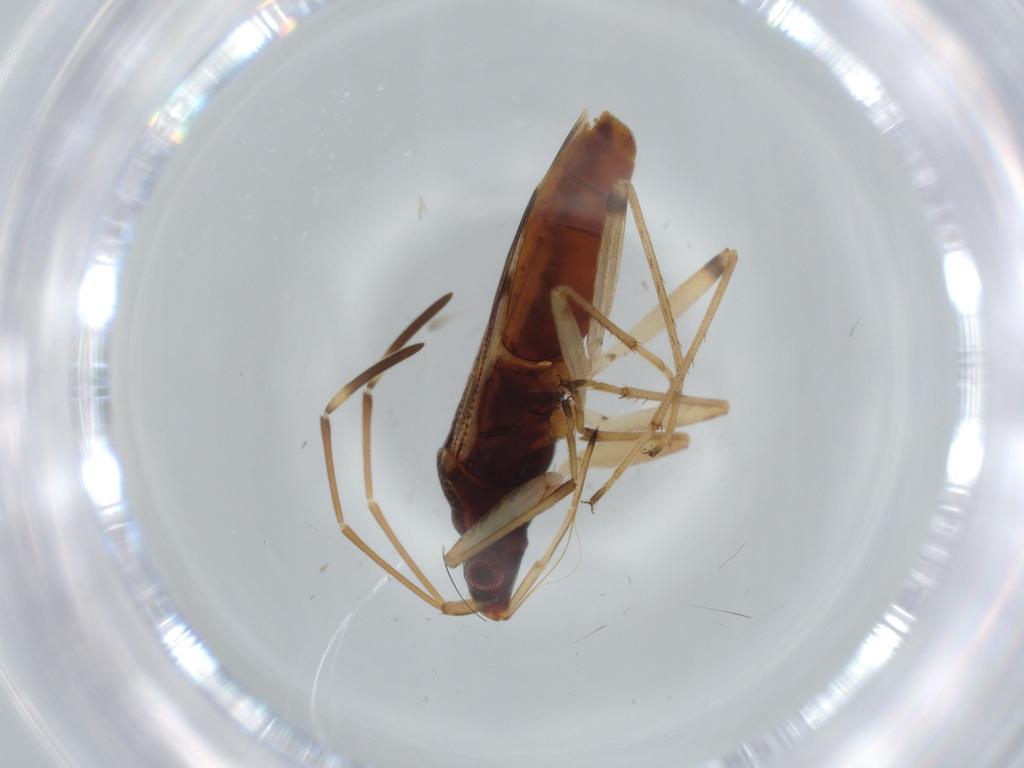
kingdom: Animalia
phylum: Arthropoda
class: Insecta
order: Hemiptera
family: Rhyparochromidae
